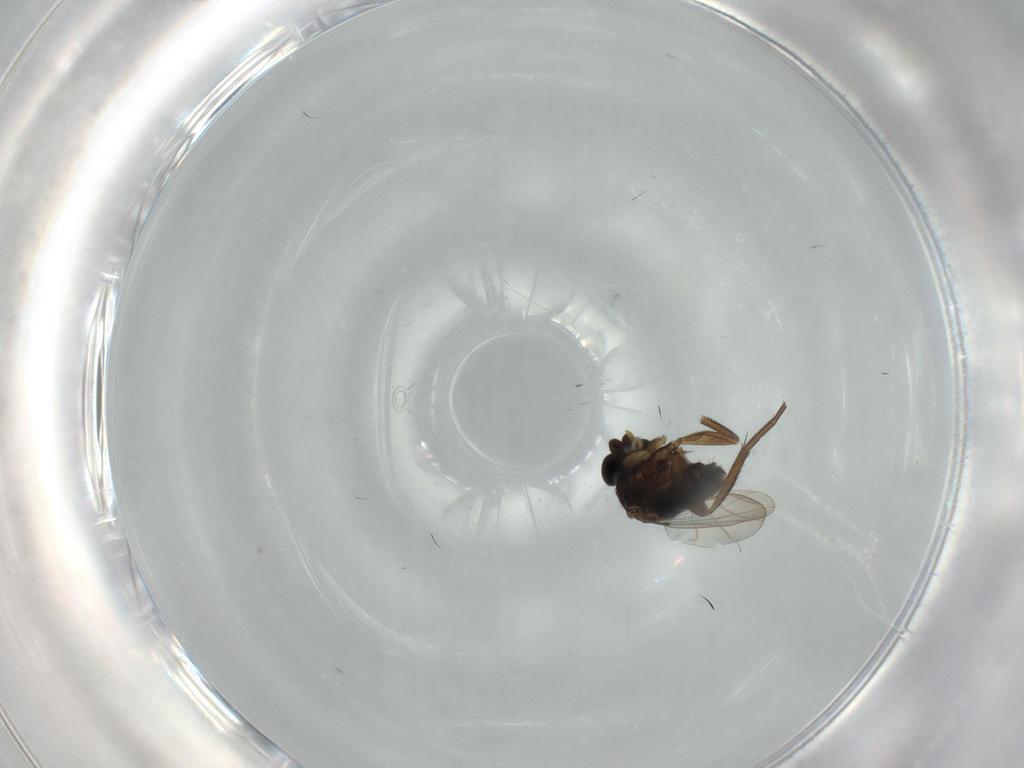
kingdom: Animalia
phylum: Arthropoda
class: Insecta
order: Diptera
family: Phoridae
